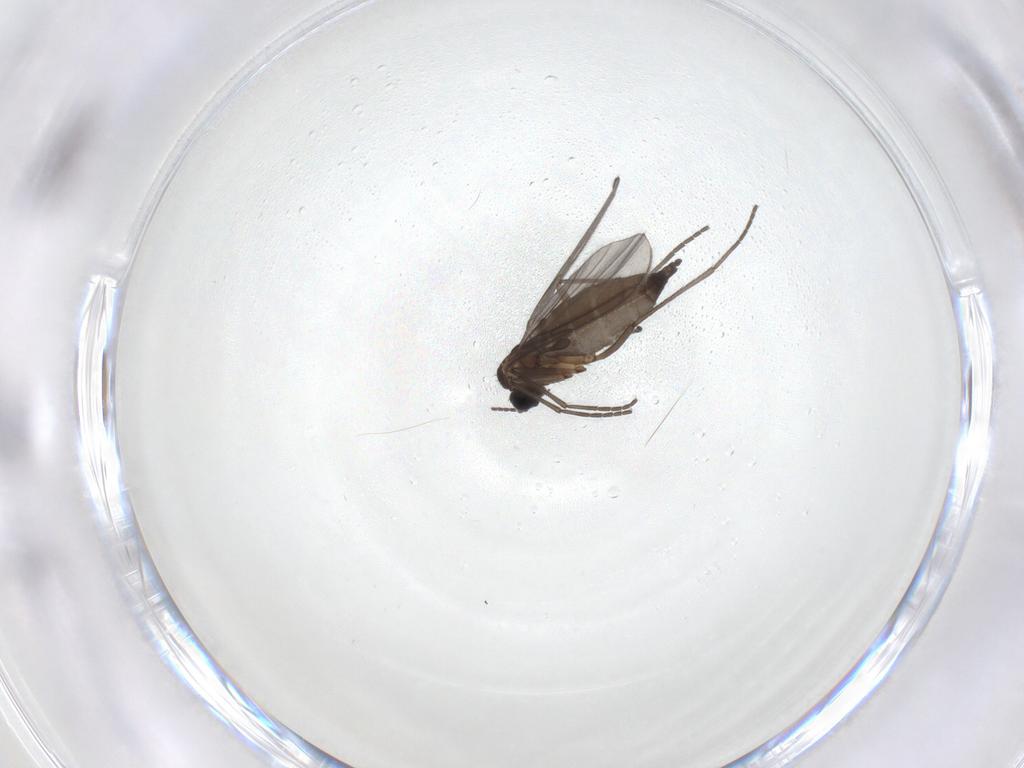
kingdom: Animalia
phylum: Arthropoda
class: Insecta
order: Diptera
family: Sciaridae
